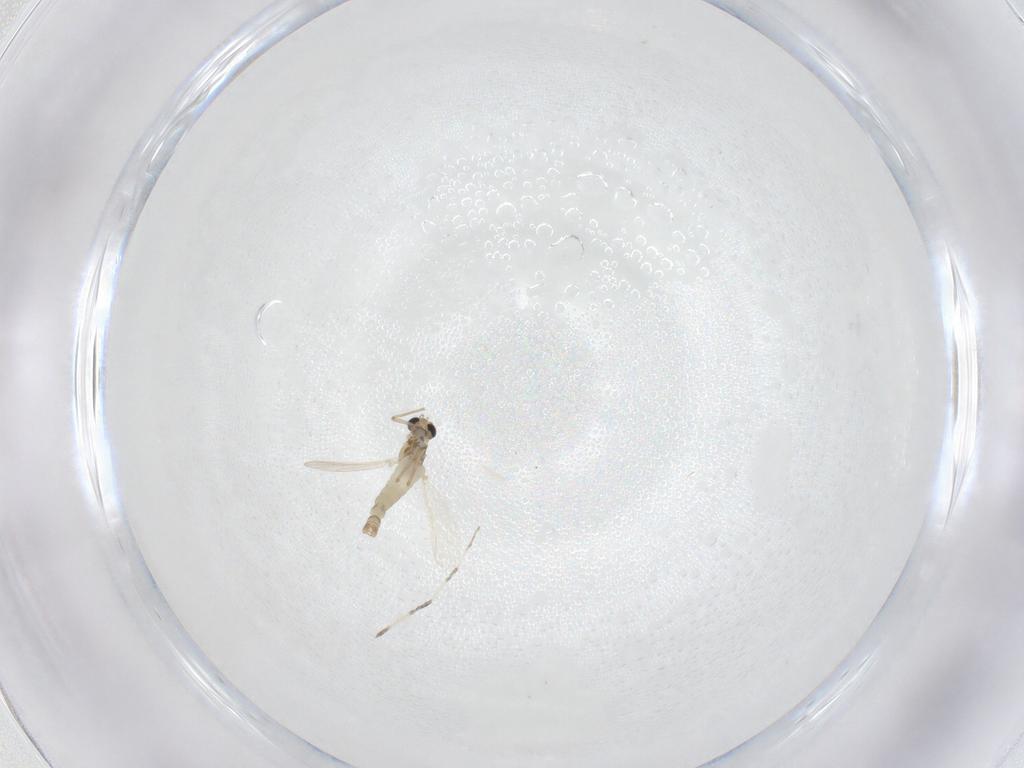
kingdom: Animalia
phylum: Arthropoda
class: Insecta
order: Diptera
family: Chironomidae
